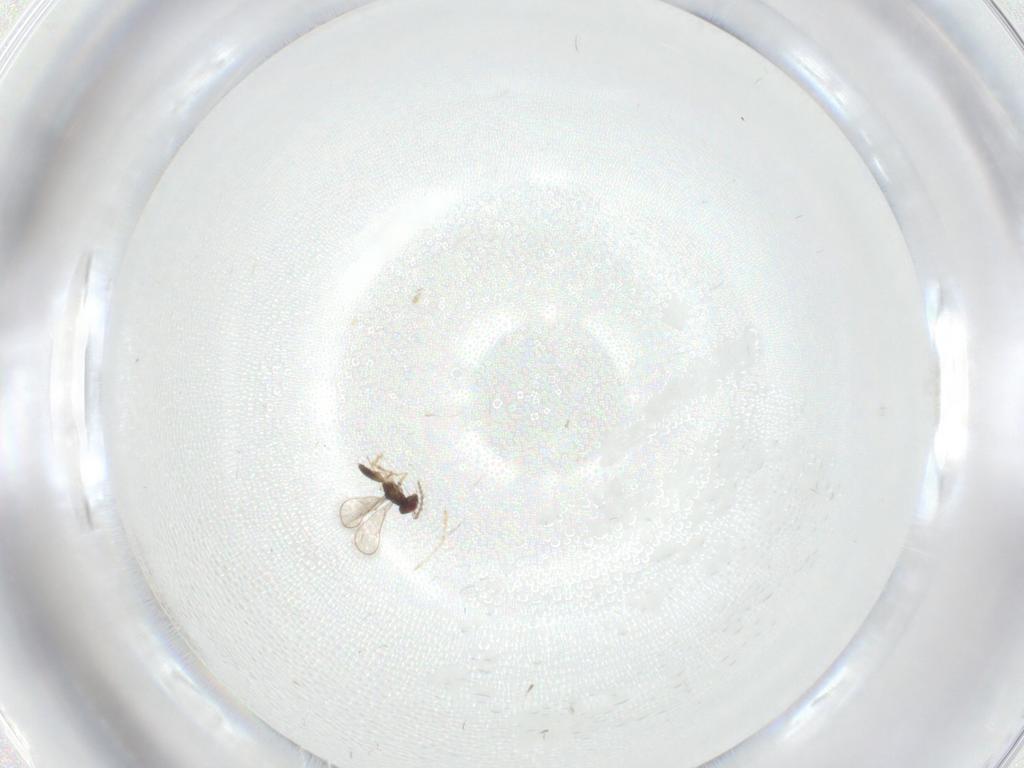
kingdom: Animalia
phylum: Arthropoda
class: Insecta
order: Hymenoptera
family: Eulophidae
